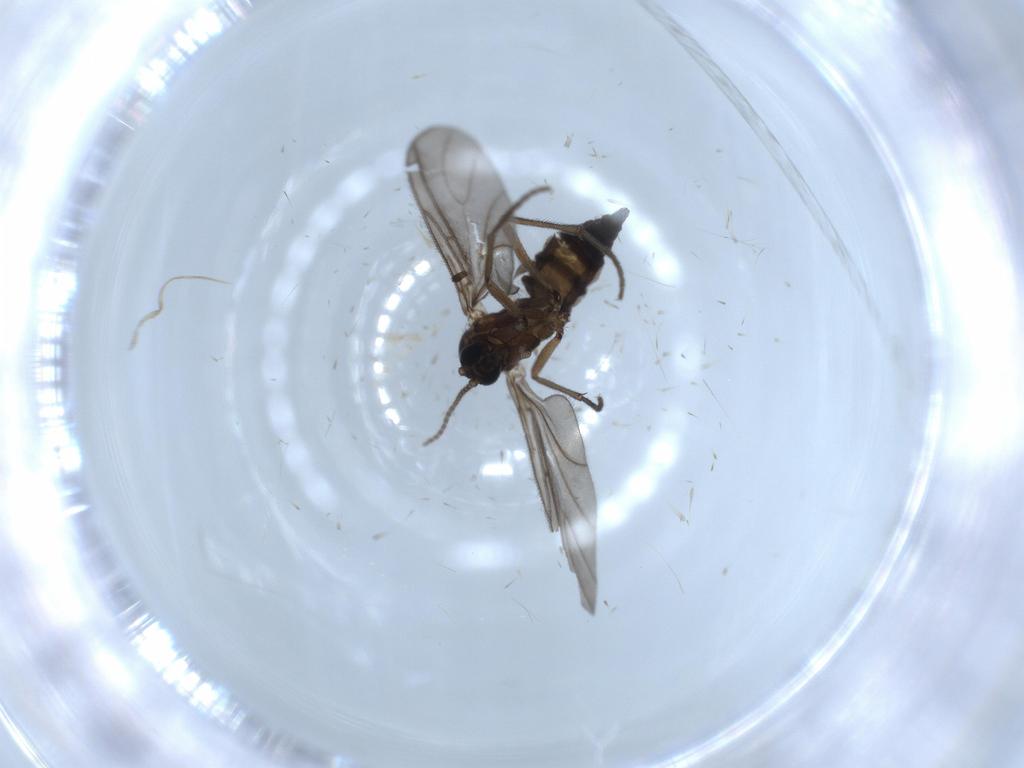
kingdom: Animalia
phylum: Arthropoda
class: Insecta
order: Diptera
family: Sciaridae
